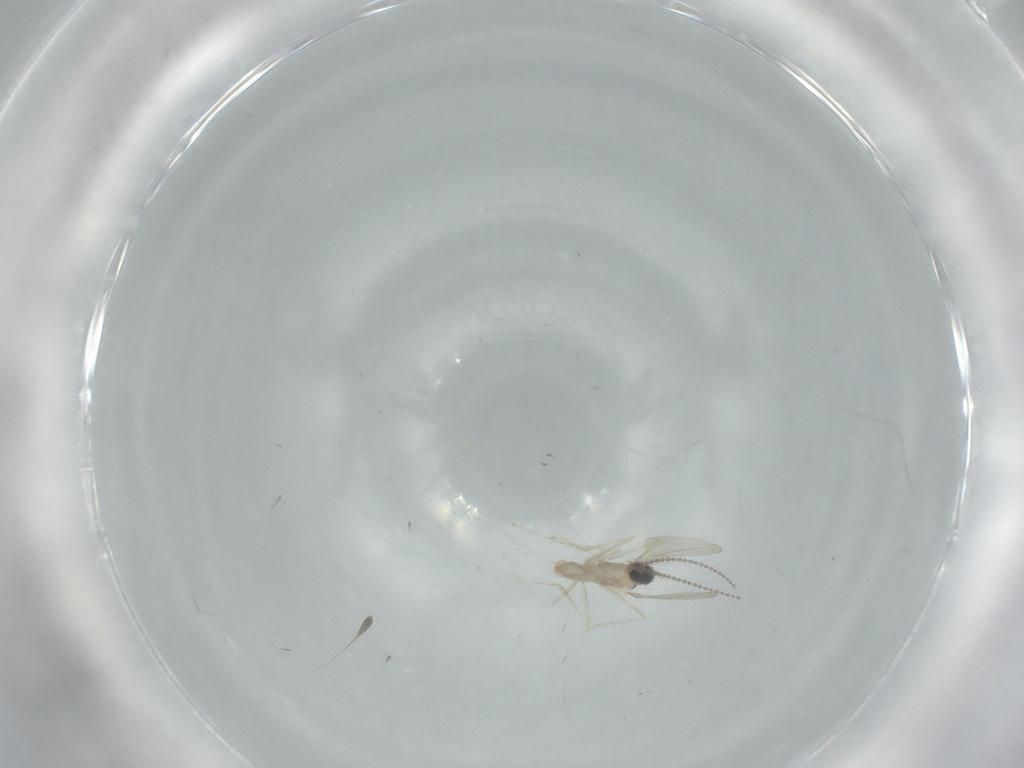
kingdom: Animalia
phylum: Arthropoda
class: Insecta
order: Diptera
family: Cecidomyiidae
